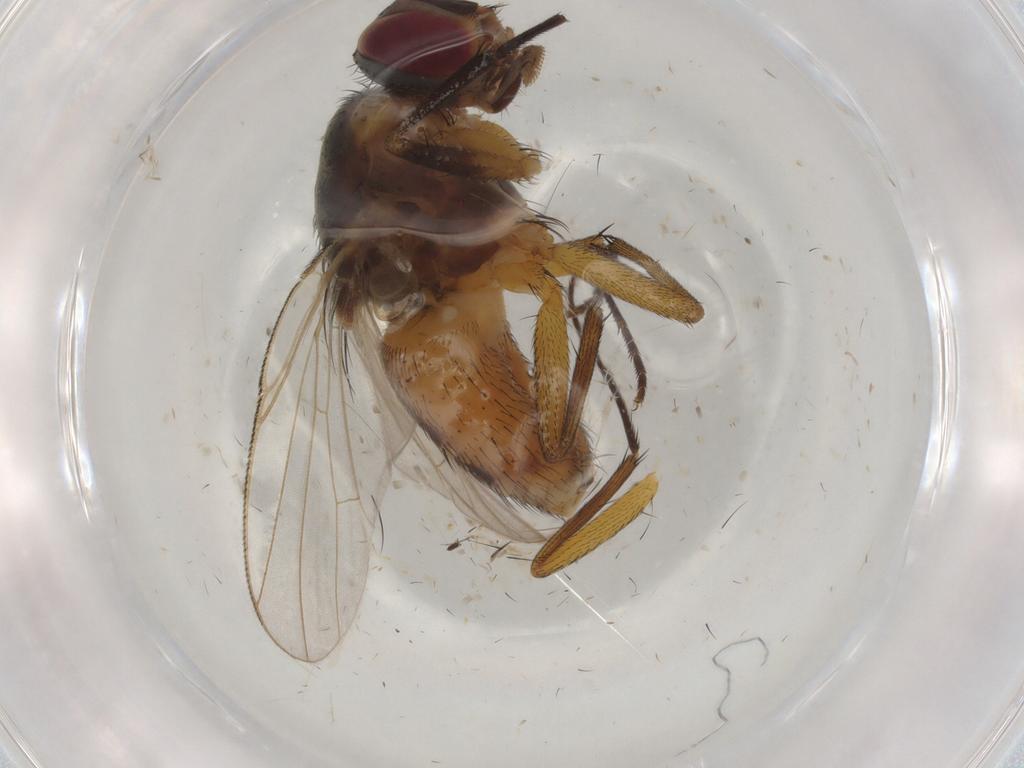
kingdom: Animalia
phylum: Arthropoda
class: Insecta
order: Diptera
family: Muscidae
